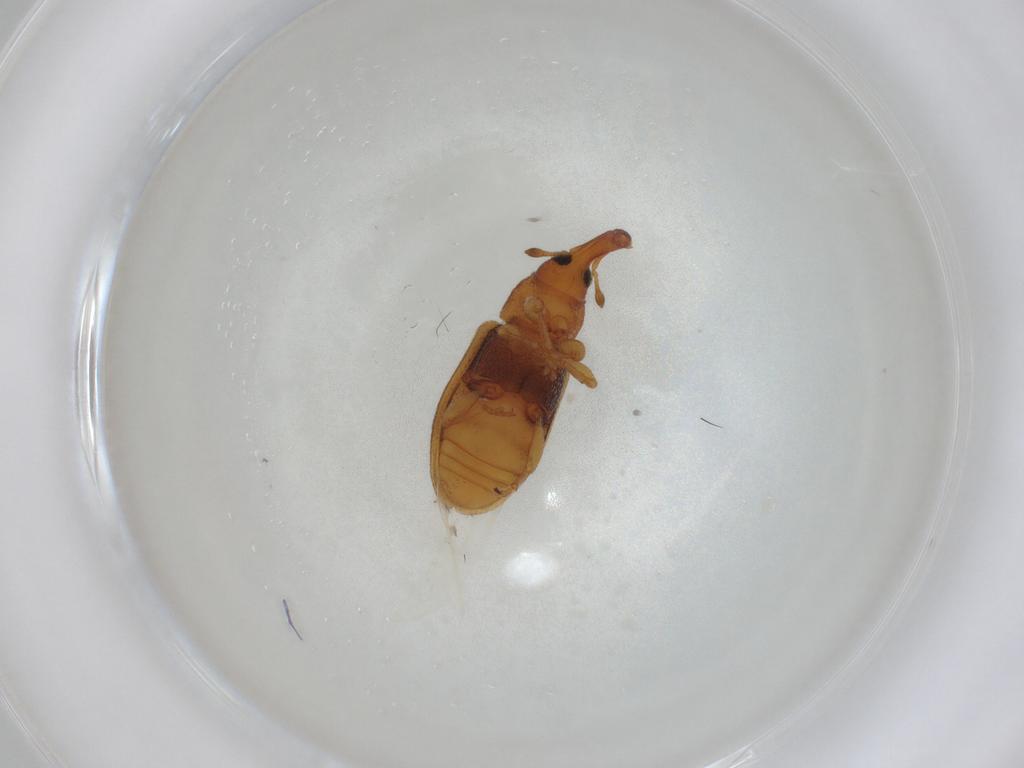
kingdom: Animalia
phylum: Arthropoda
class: Insecta
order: Coleoptera
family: Curculionidae
